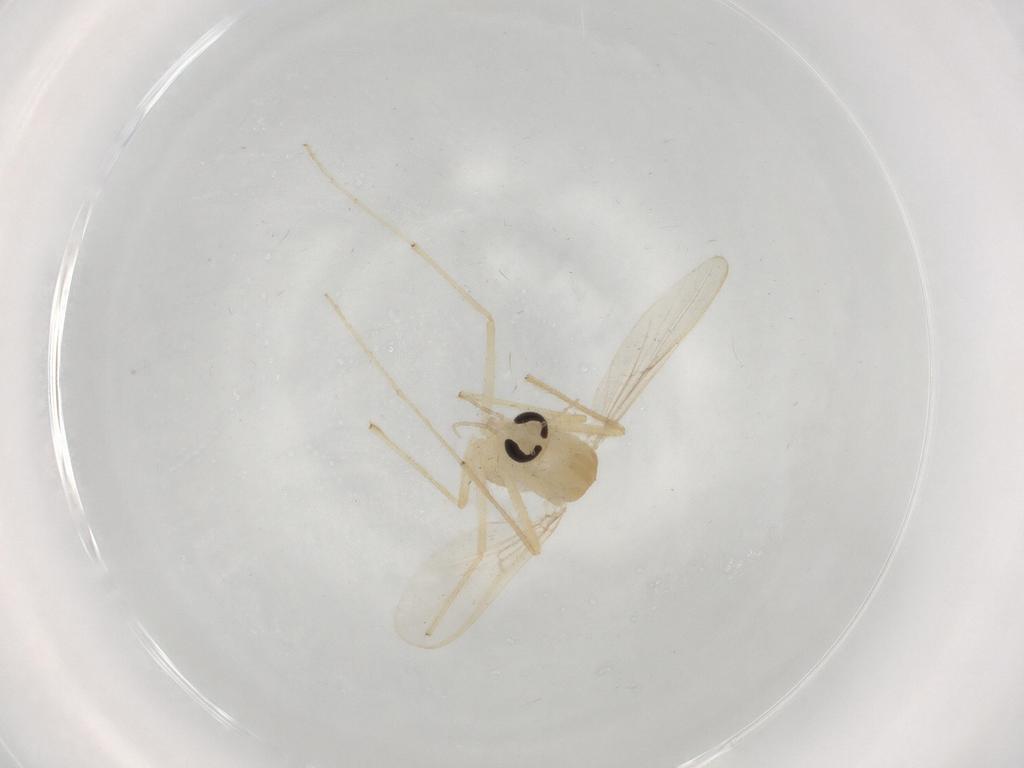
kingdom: Animalia
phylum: Arthropoda
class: Insecta
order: Diptera
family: Chironomidae
